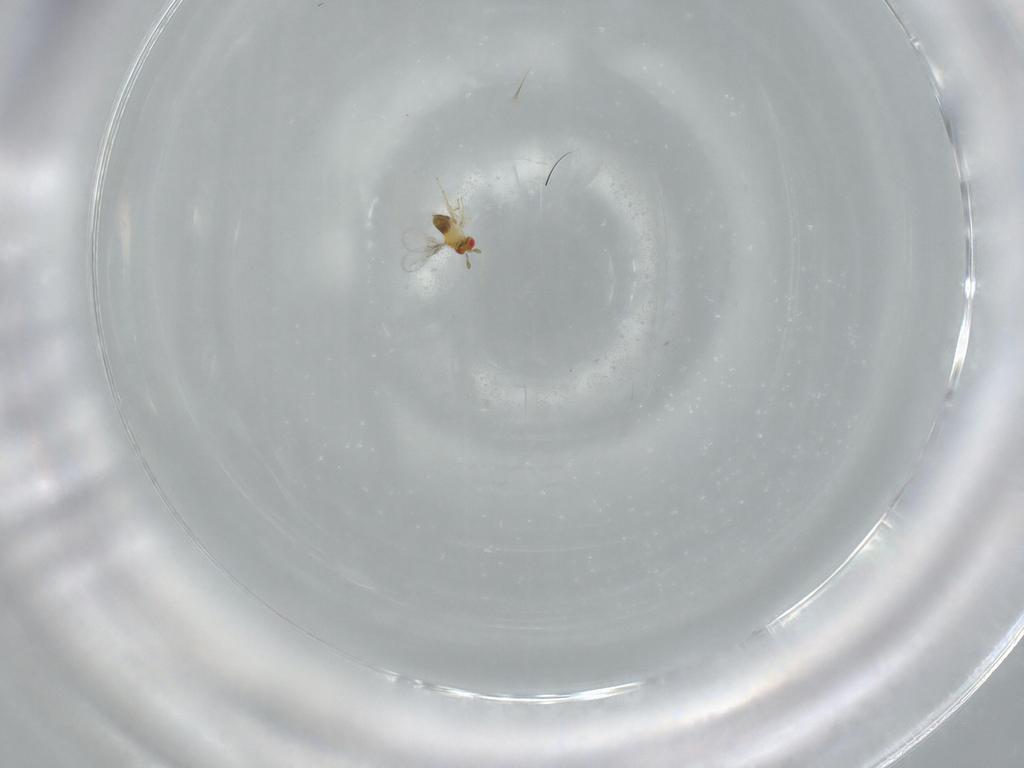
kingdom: Animalia
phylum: Arthropoda
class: Insecta
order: Hymenoptera
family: Trichogrammatidae
